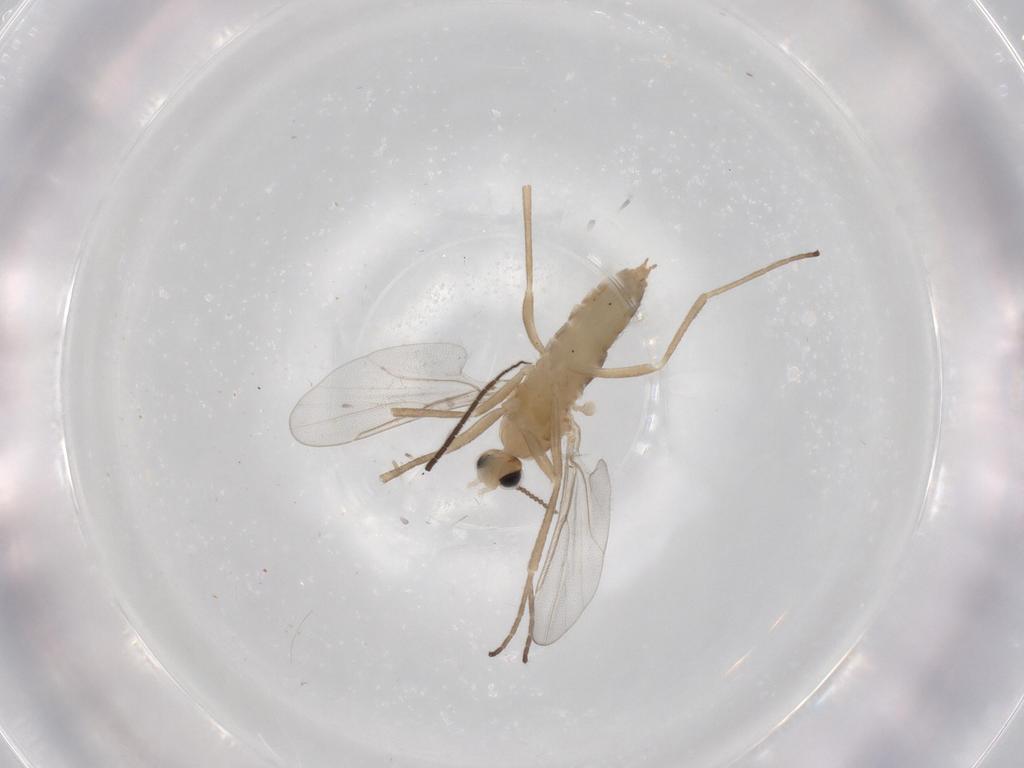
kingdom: Animalia
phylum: Arthropoda
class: Insecta
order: Diptera
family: Cecidomyiidae
